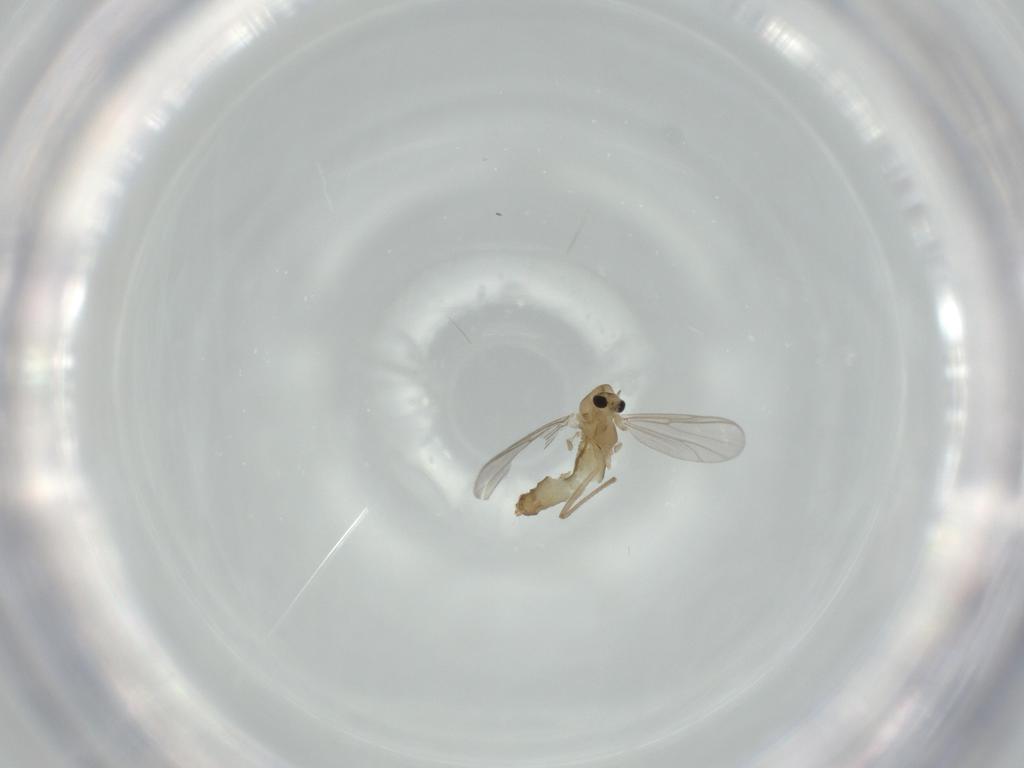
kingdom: Animalia
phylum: Arthropoda
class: Insecta
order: Diptera
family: Chironomidae
